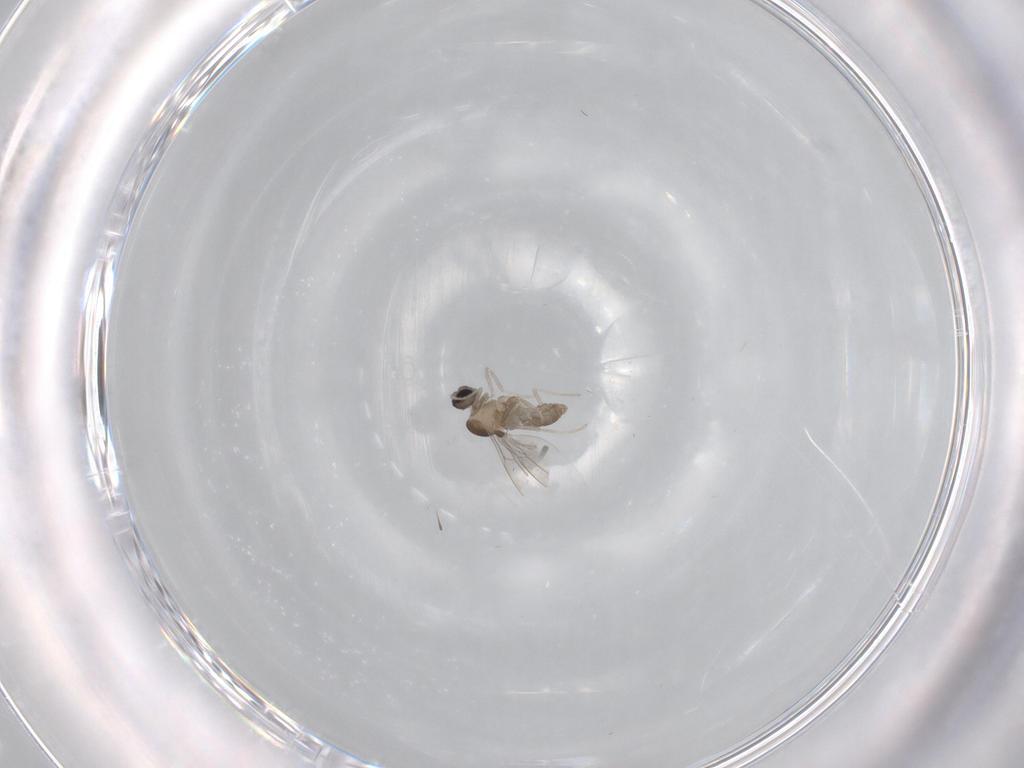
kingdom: Animalia
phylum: Arthropoda
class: Insecta
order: Diptera
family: Cecidomyiidae
